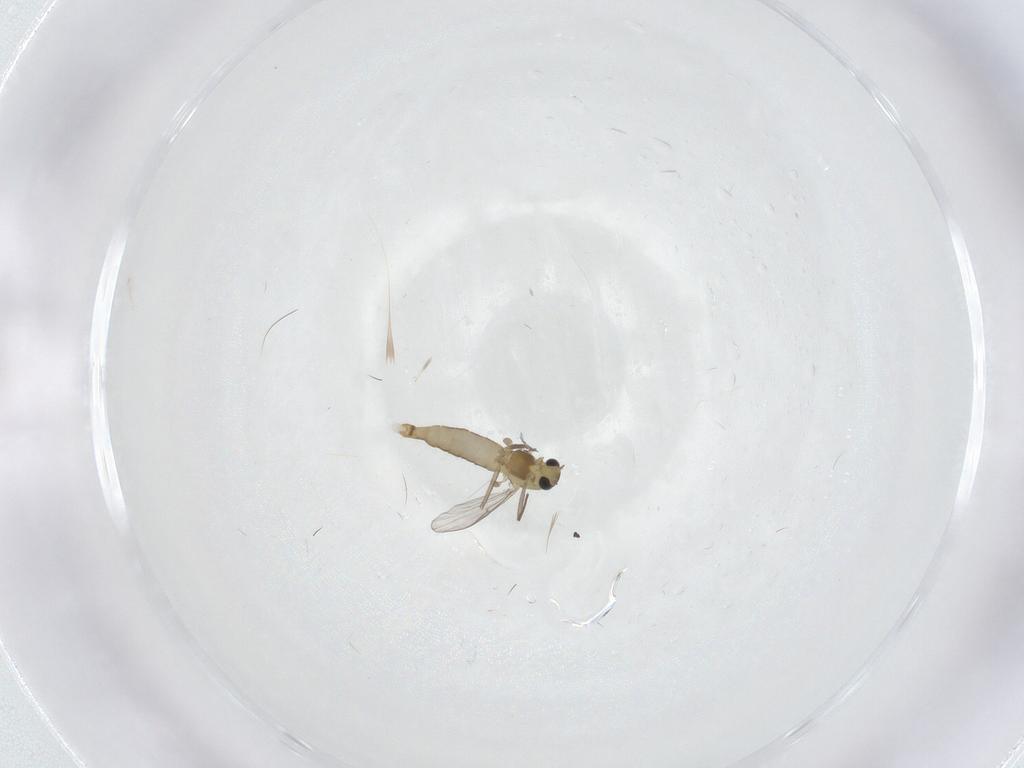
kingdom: Animalia
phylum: Arthropoda
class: Insecta
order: Diptera
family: Chironomidae
